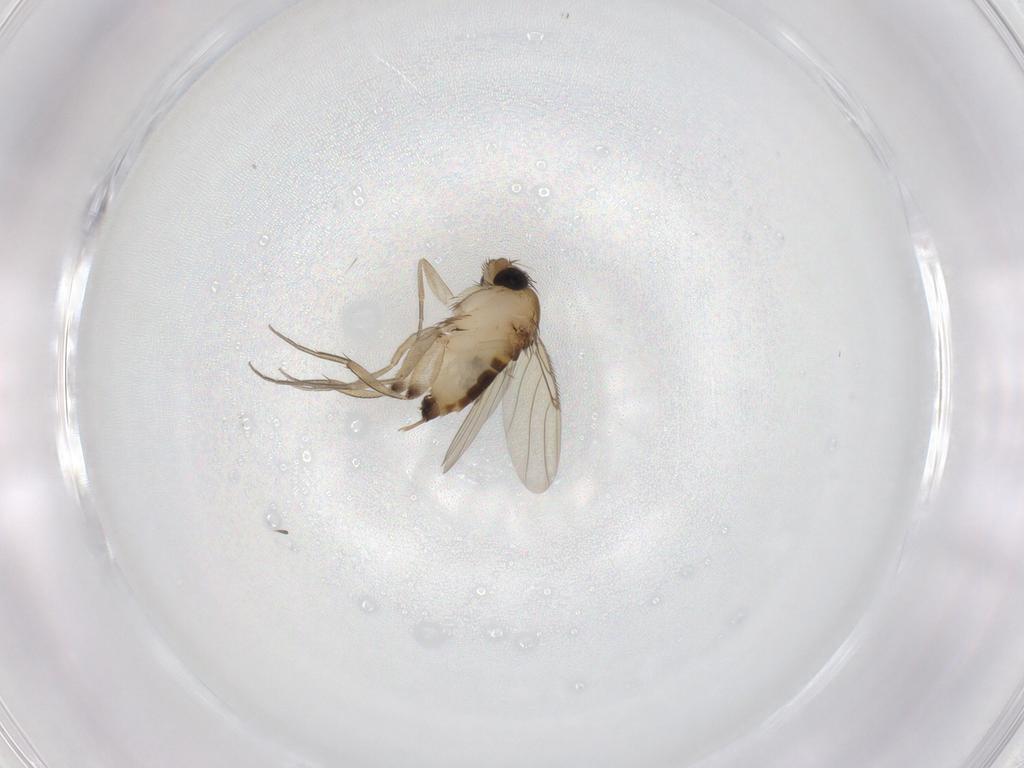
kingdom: Animalia
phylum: Arthropoda
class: Insecta
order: Diptera
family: Phoridae
